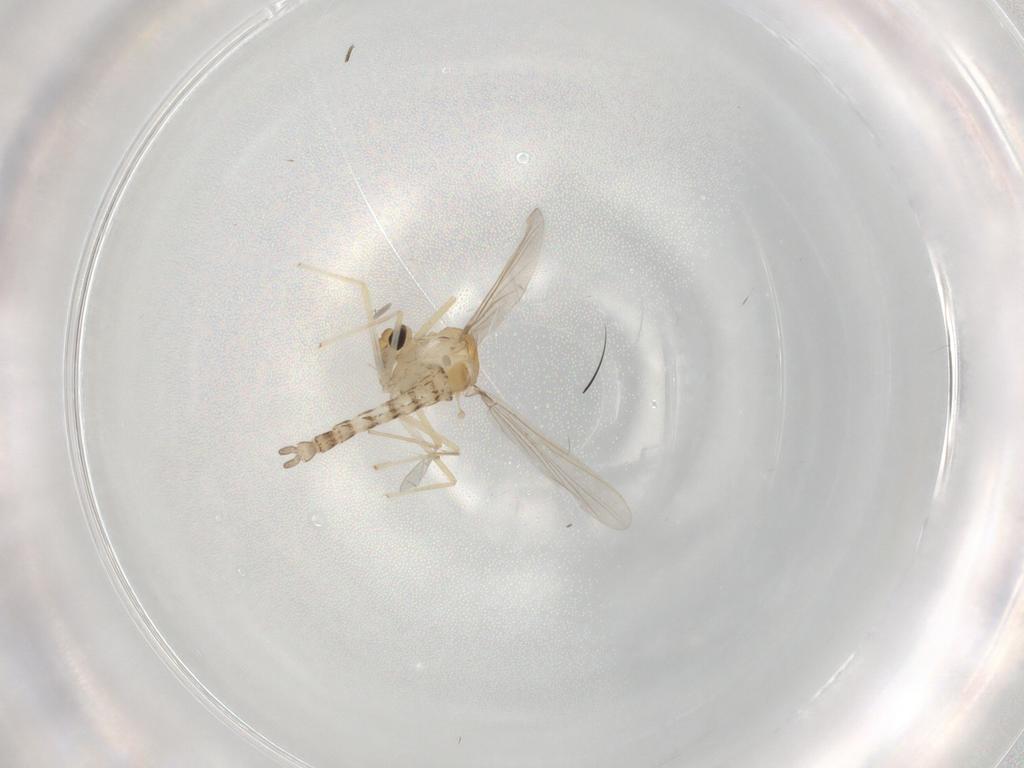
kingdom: Animalia
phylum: Arthropoda
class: Insecta
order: Diptera
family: Chironomidae
